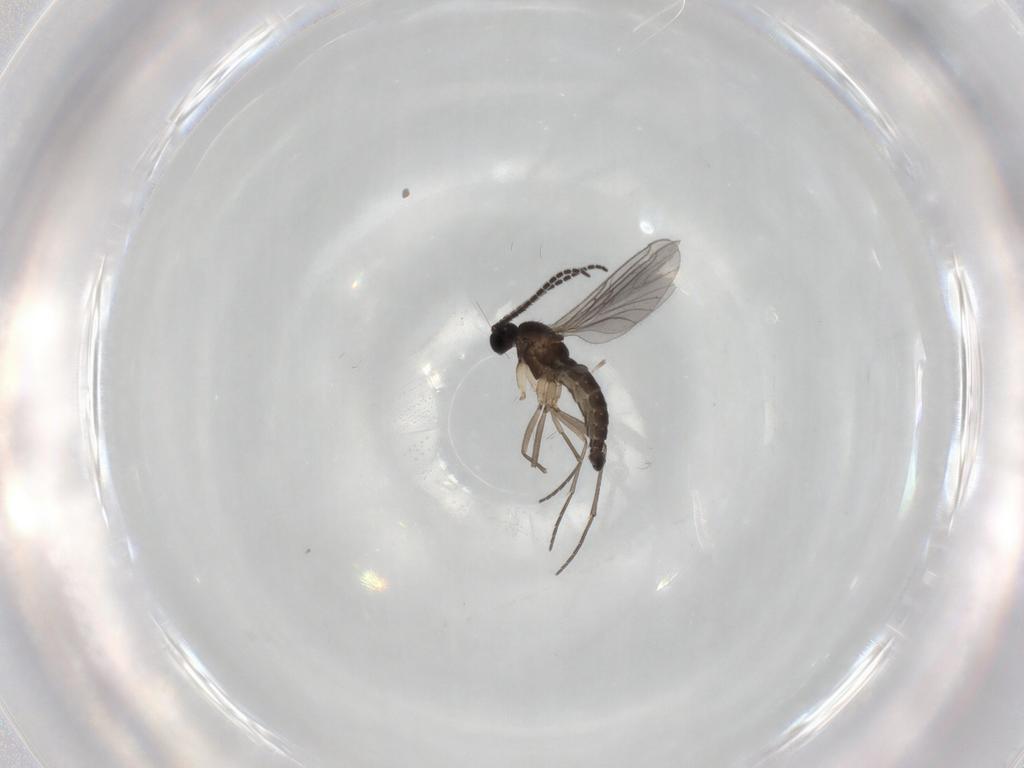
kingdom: Animalia
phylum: Arthropoda
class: Insecta
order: Diptera
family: Sciaridae
